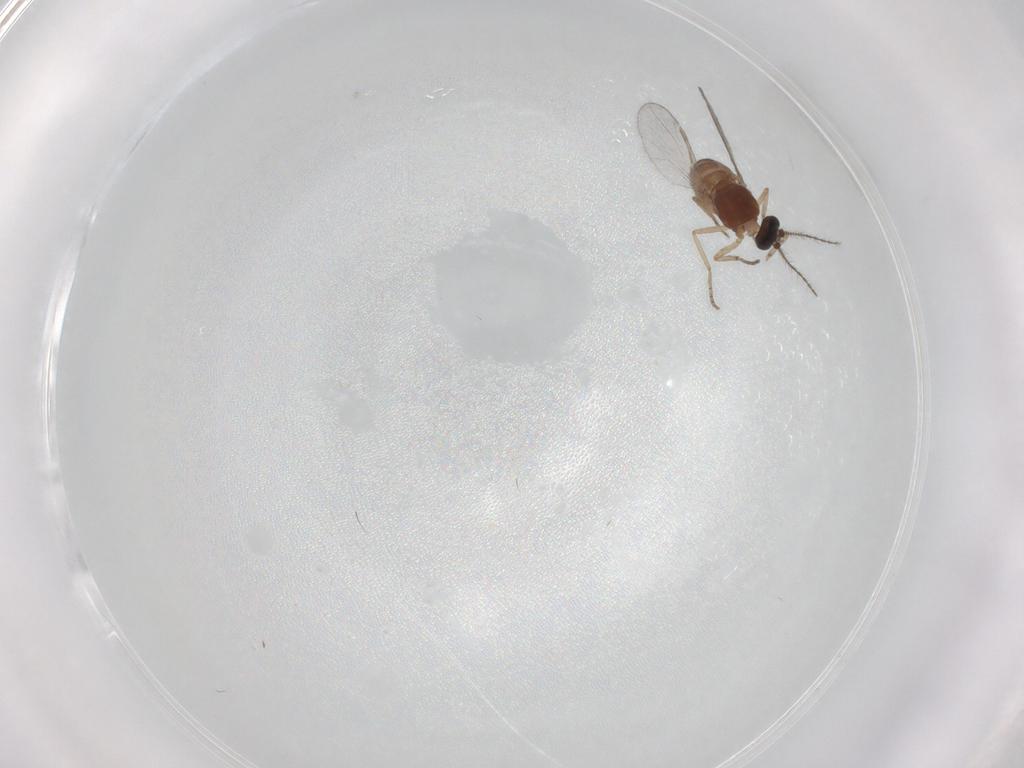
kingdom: Animalia
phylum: Arthropoda
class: Insecta
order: Diptera
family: Ceratopogonidae
